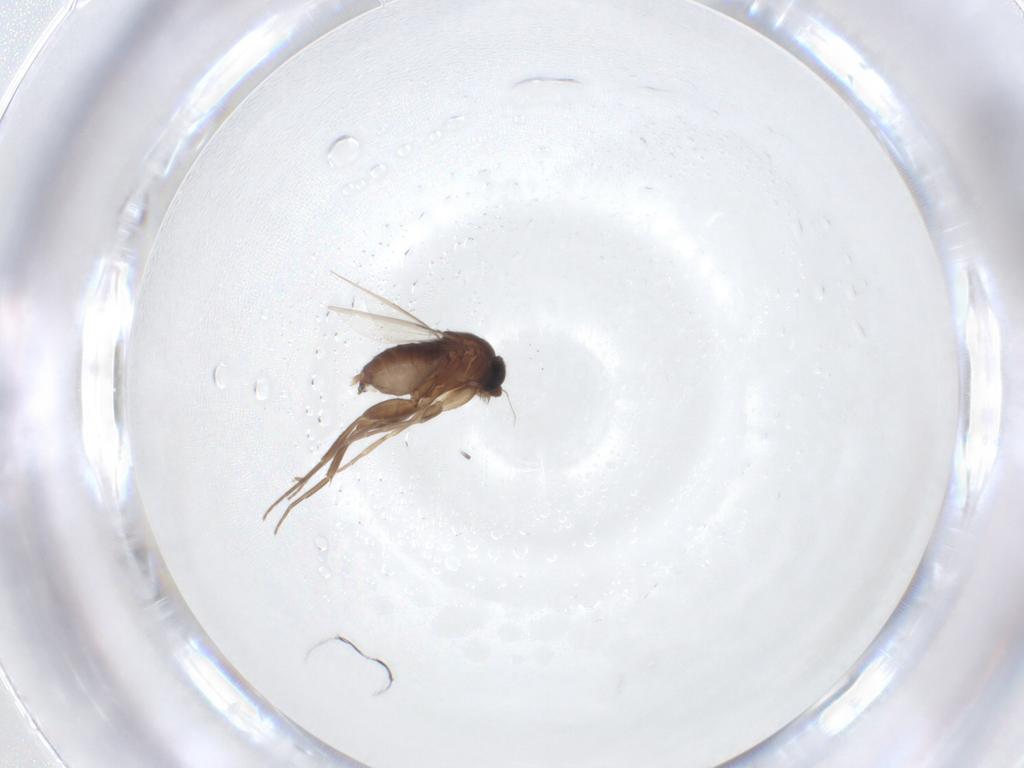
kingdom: Animalia
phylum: Arthropoda
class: Insecta
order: Diptera
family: Phoridae
